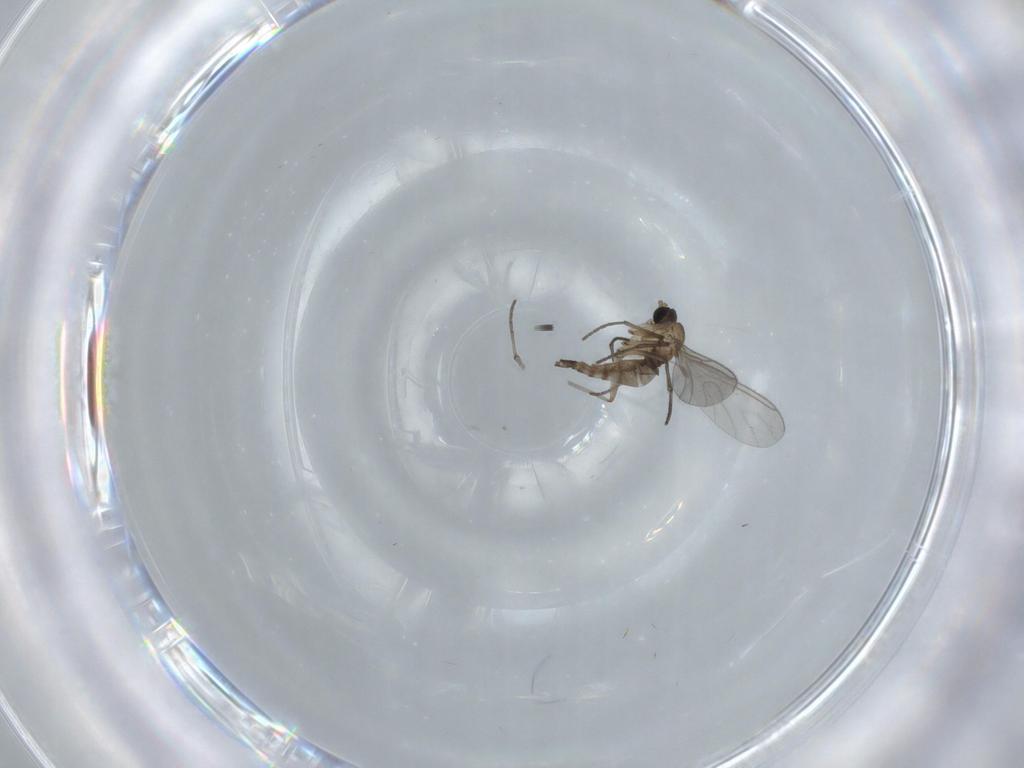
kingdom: Animalia
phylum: Arthropoda
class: Insecta
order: Diptera
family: Sciaridae
